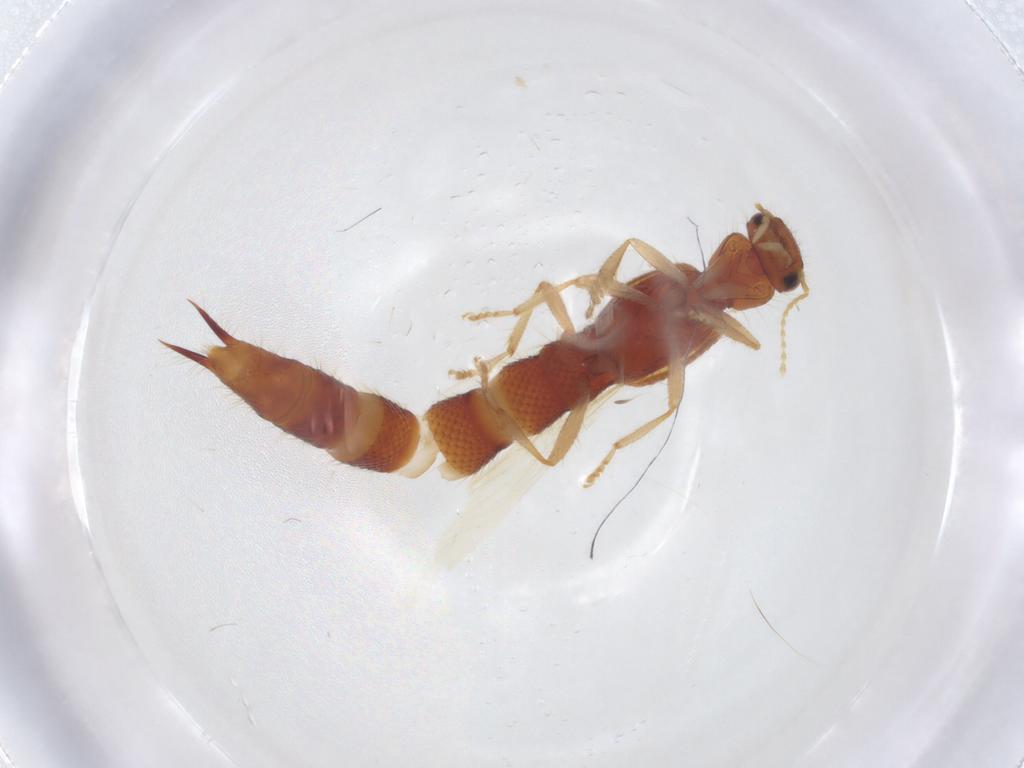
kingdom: Animalia
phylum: Arthropoda
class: Insecta
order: Coleoptera
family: Staphylinidae
